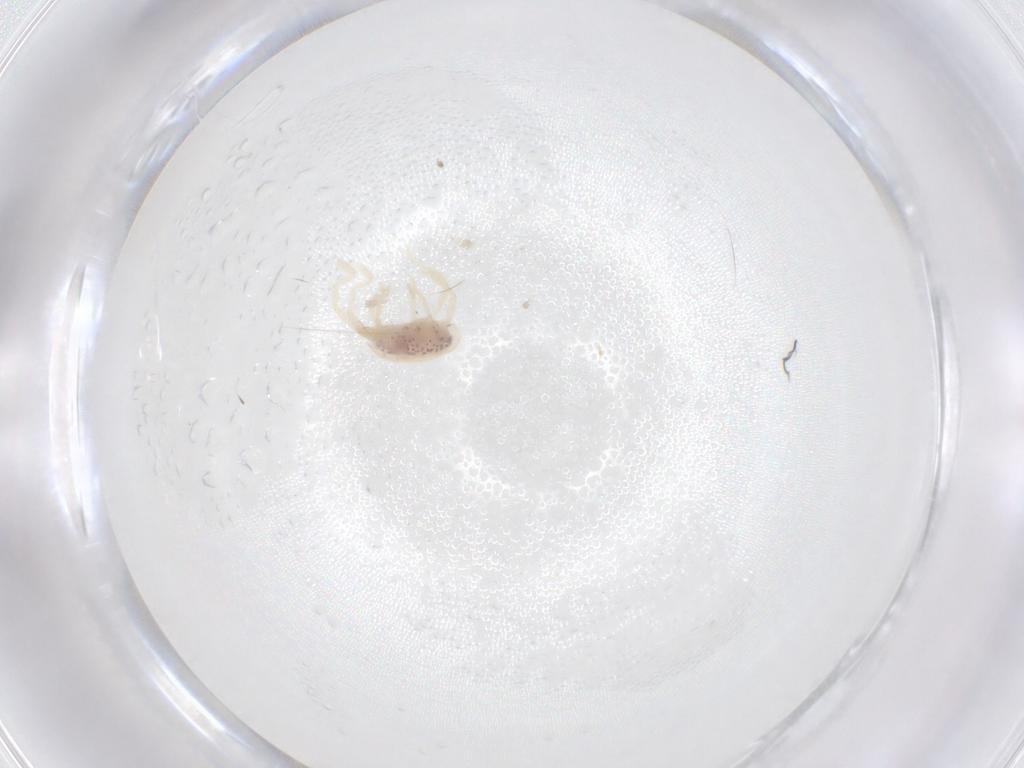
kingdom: Animalia
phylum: Arthropoda
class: Arachnida
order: Trombidiformes
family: Erythraeidae
